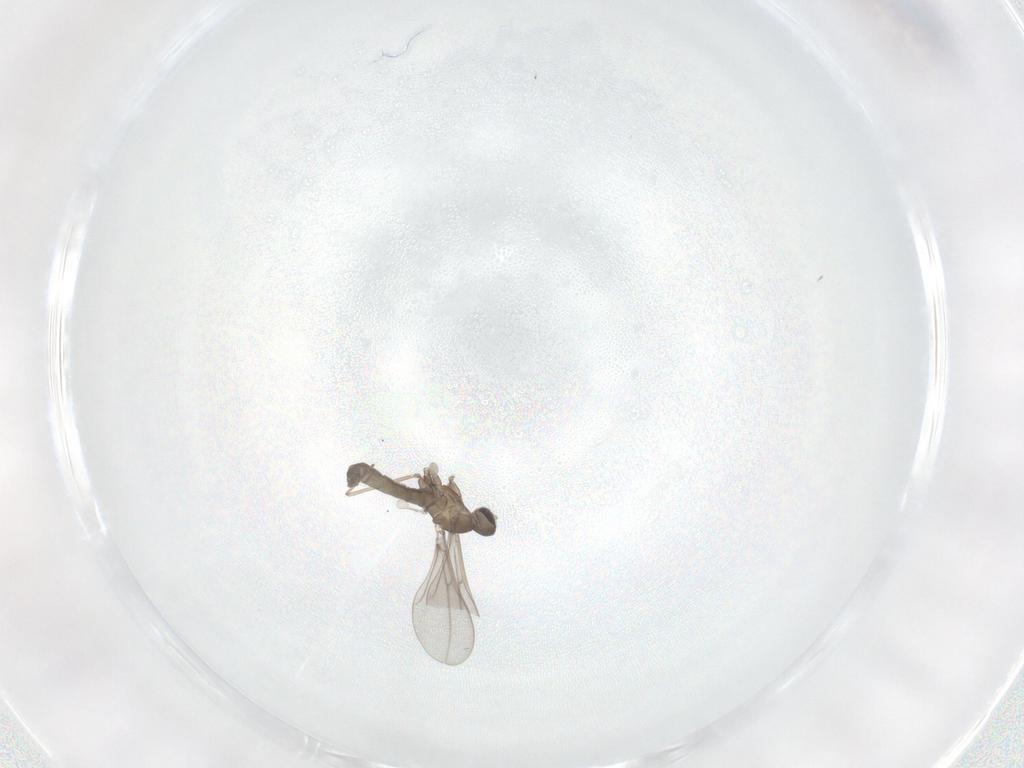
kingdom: Animalia
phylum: Arthropoda
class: Insecta
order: Diptera
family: Cecidomyiidae
